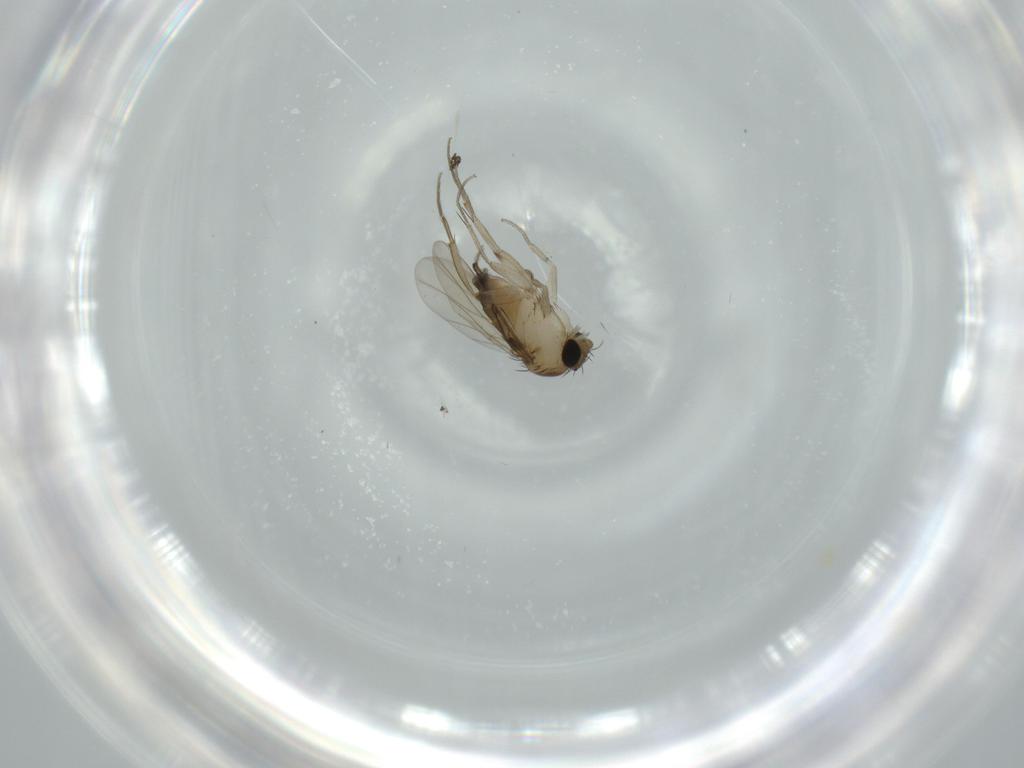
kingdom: Animalia
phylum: Arthropoda
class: Insecta
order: Diptera
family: Phoridae
